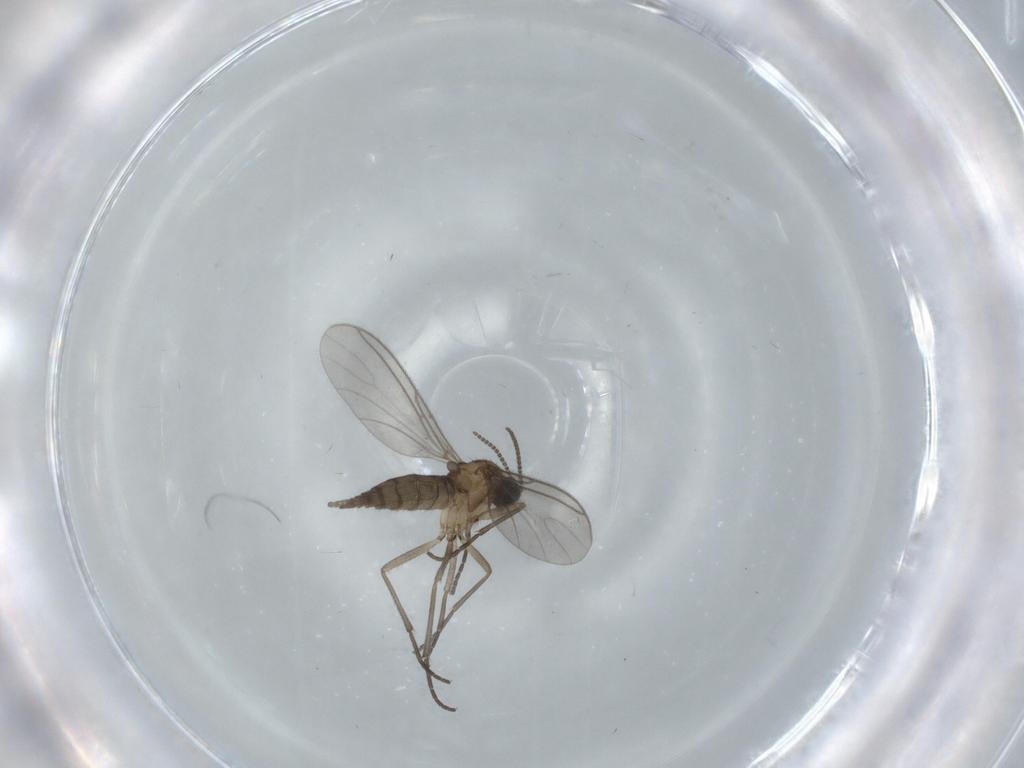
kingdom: Animalia
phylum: Arthropoda
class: Insecta
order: Diptera
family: Sciaridae
